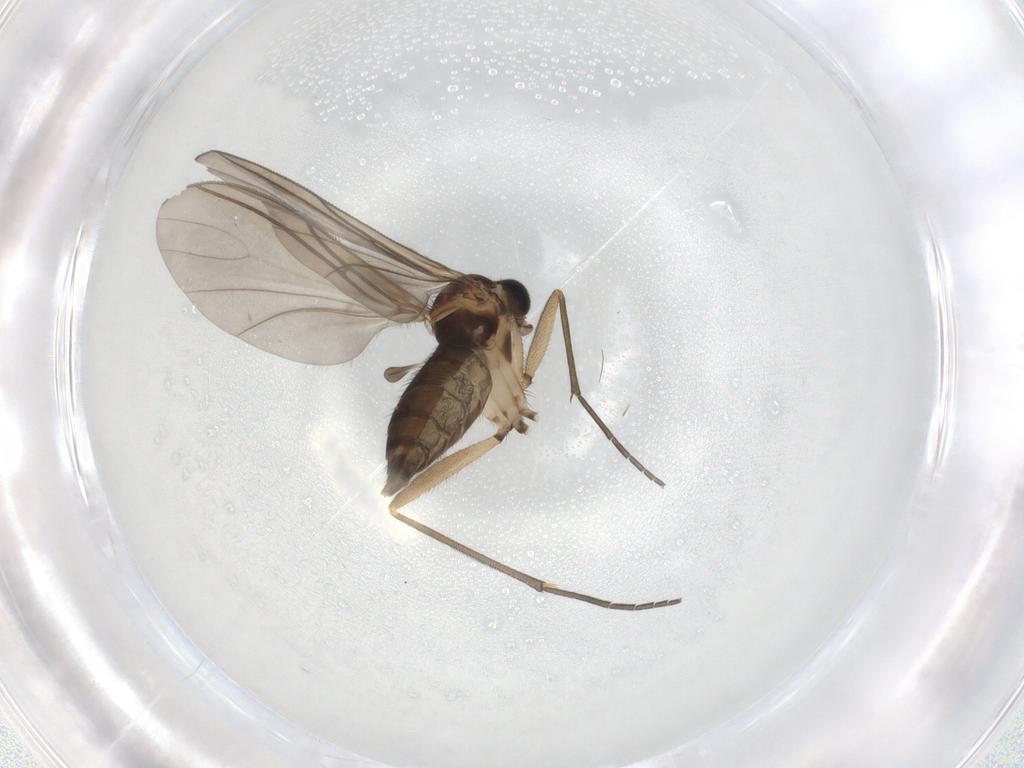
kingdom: Animalia
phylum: Arthropoda
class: Insecta
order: Diptera
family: Sciaridae
